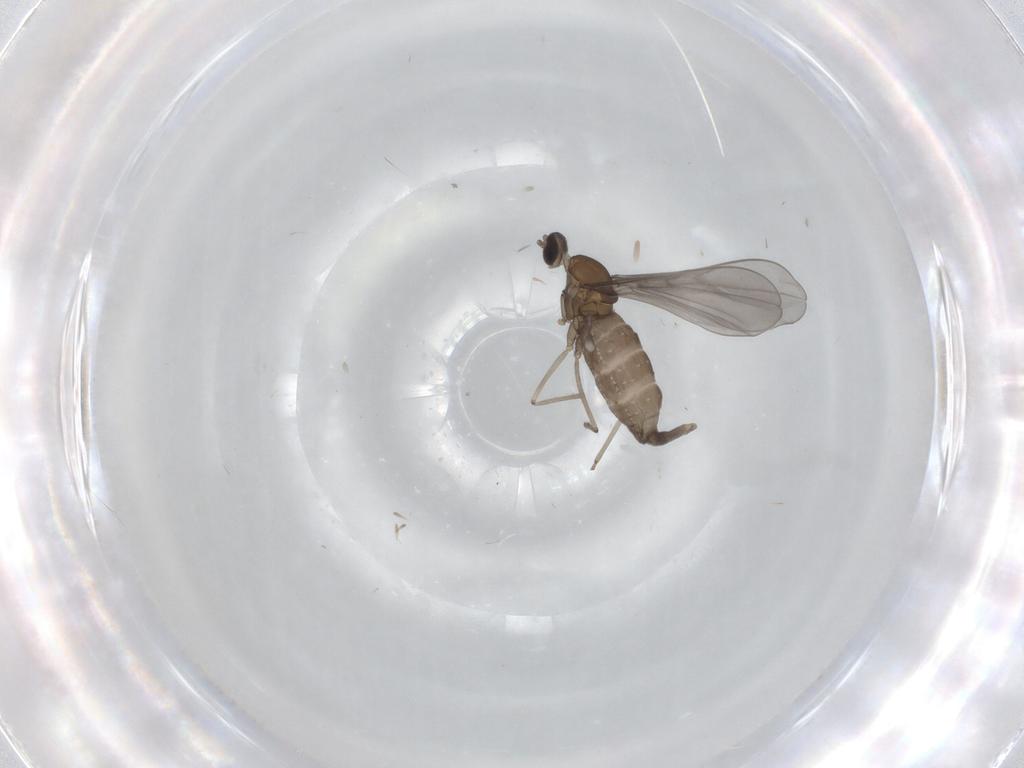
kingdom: Animalia
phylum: Arthropoda
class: Insecta
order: Diptera
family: Cecidomyiidae
